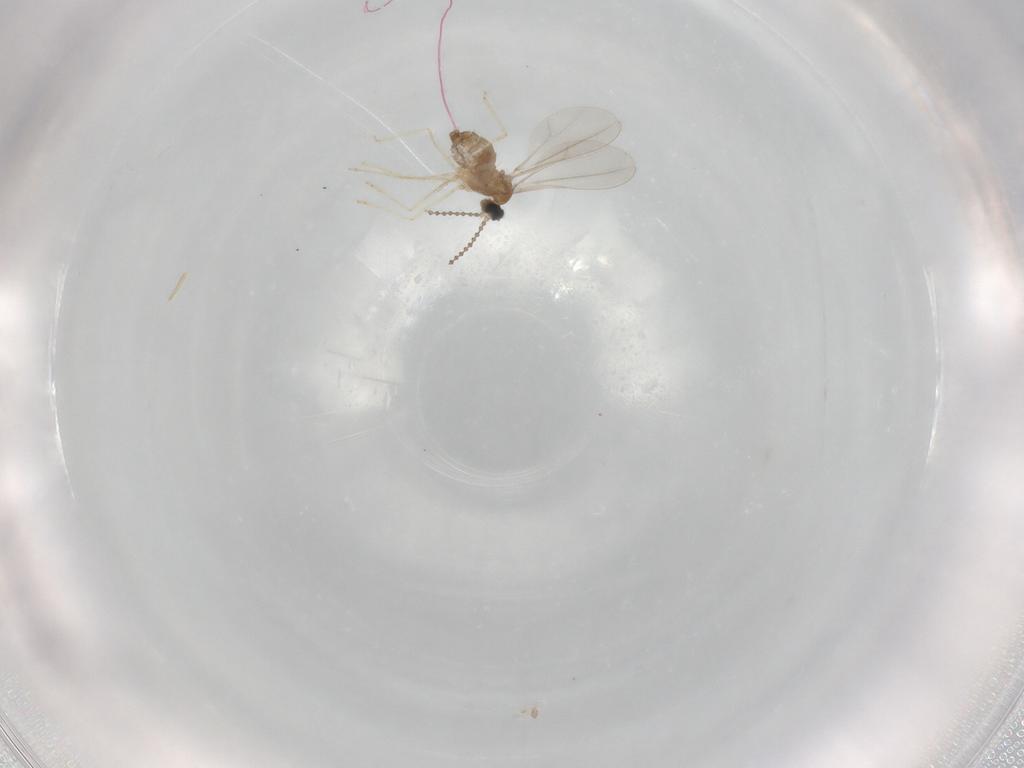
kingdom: Animalia
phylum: Arthropoda
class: Insecta
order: Diptera
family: Cecidomyiidae
